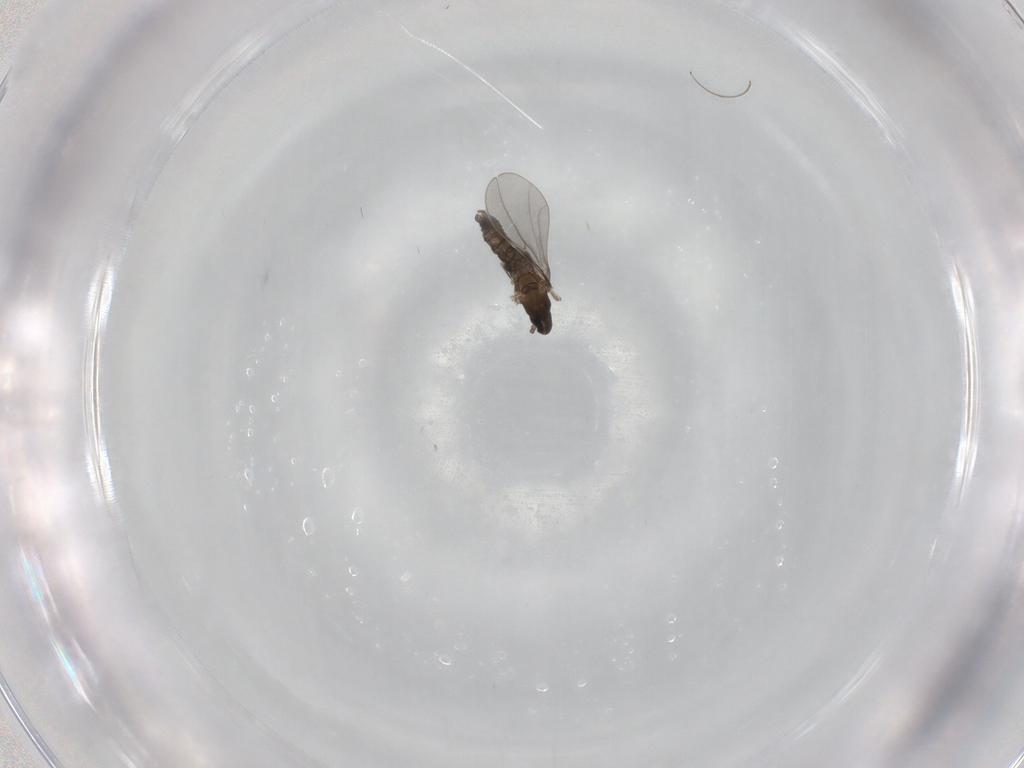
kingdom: Animalia
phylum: Arthropoda
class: Insecta
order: Diptera
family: Cecidomyiidae
